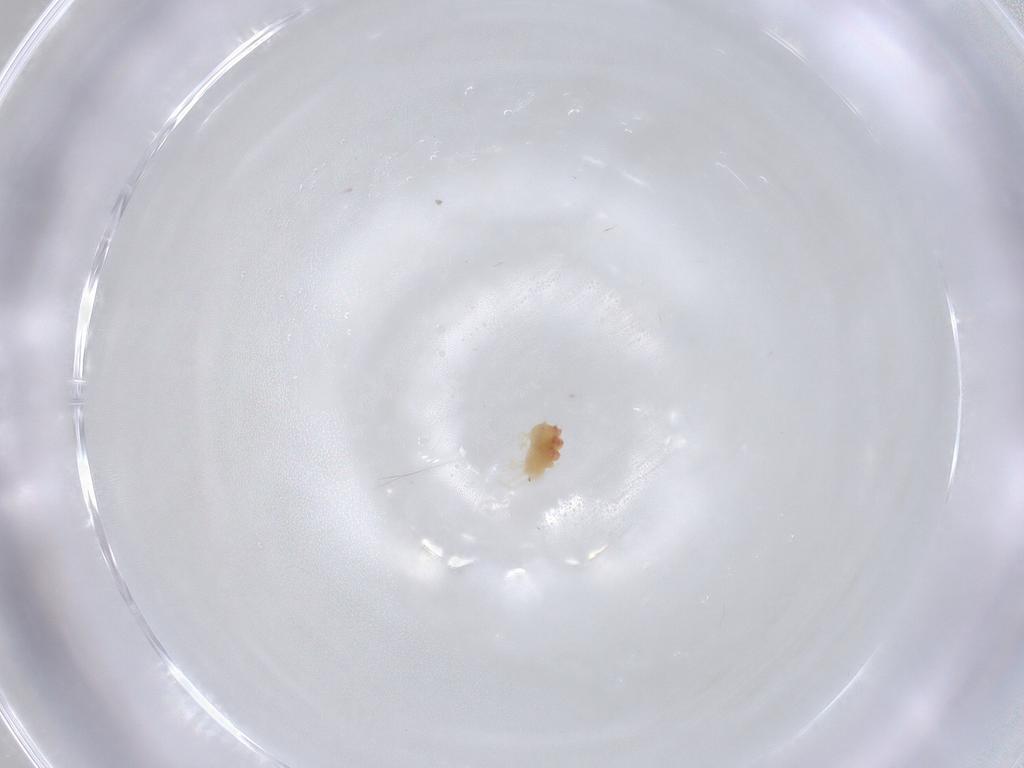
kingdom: Animalia
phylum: Arthropoda
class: Arachnida
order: Trombidiformes
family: Tetranychidae
